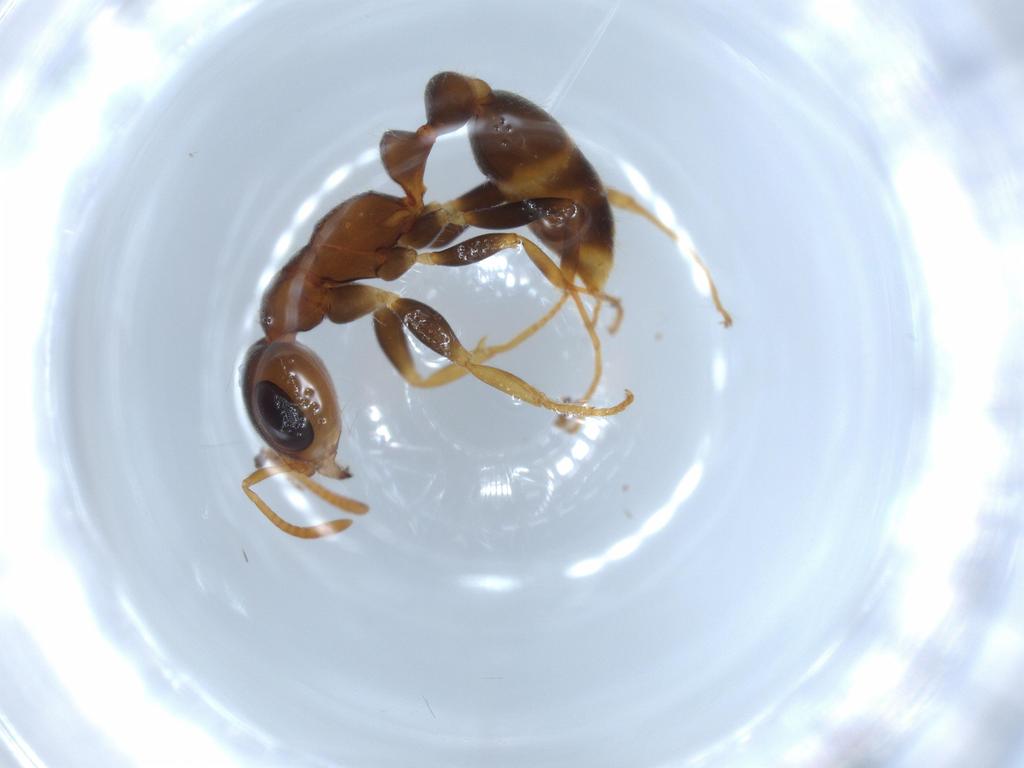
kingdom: Animalia
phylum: Arthropoda
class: Insecta
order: Hymenoptera
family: Formicidae
